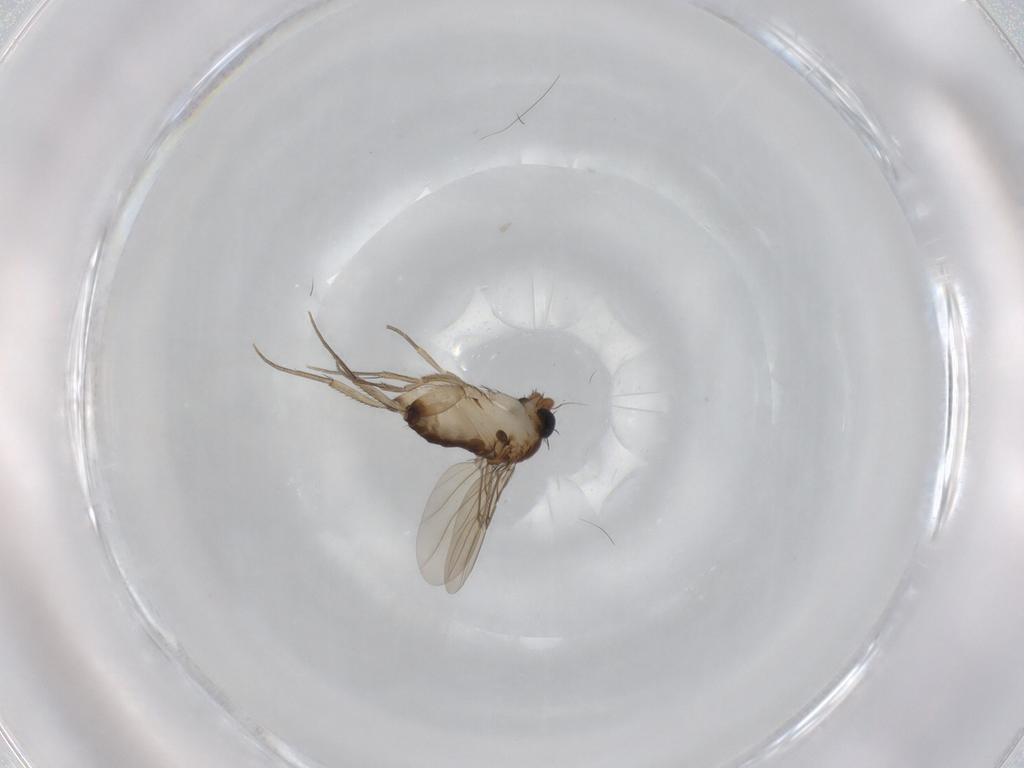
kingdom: Animalia
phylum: Arthropoda
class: Insecta
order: Diptera
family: Phoridae
